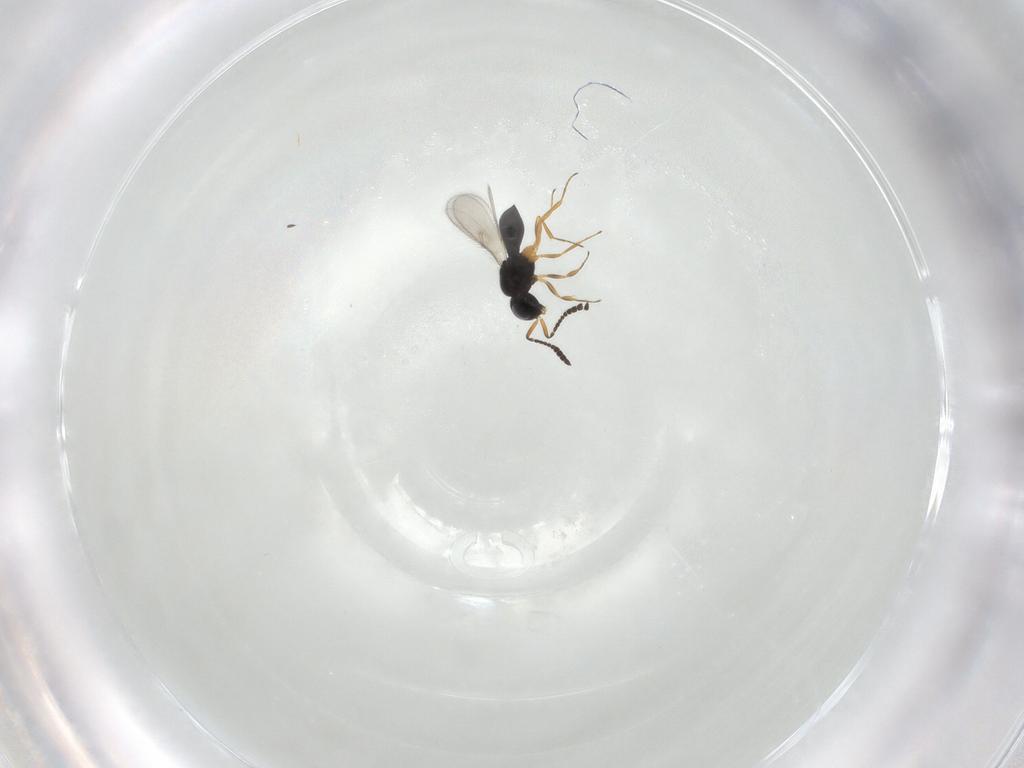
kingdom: Animalia
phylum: Arthropoda
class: Insecta
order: Hymenoptera
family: Scelionidae
